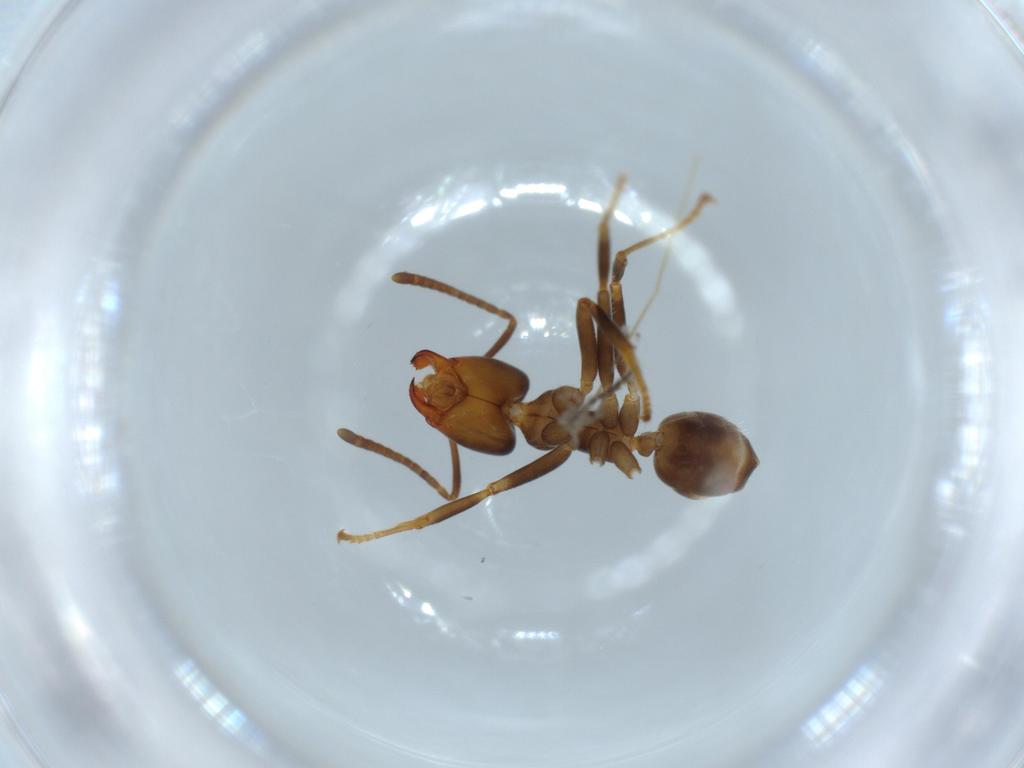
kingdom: Animalia
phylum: Arthropoda
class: Insecta
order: Hymenoptera
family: Formicidae
